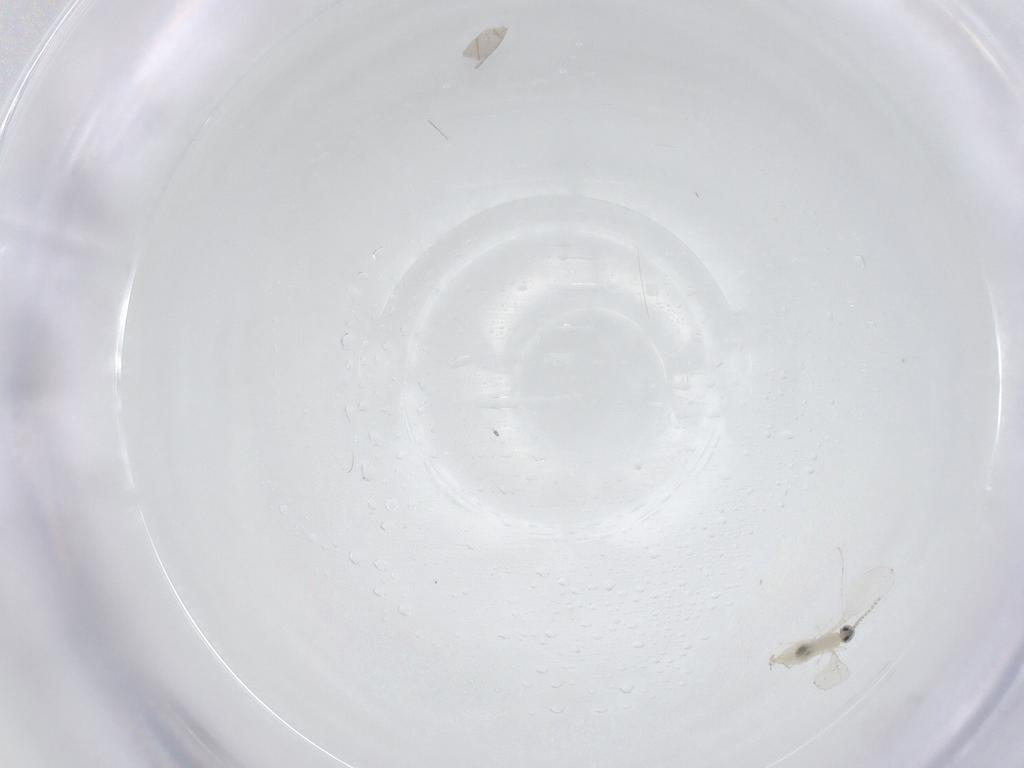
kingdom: Animalia
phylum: Arthropoda
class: Insecta
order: Diptera
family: Cecidomyiidae
